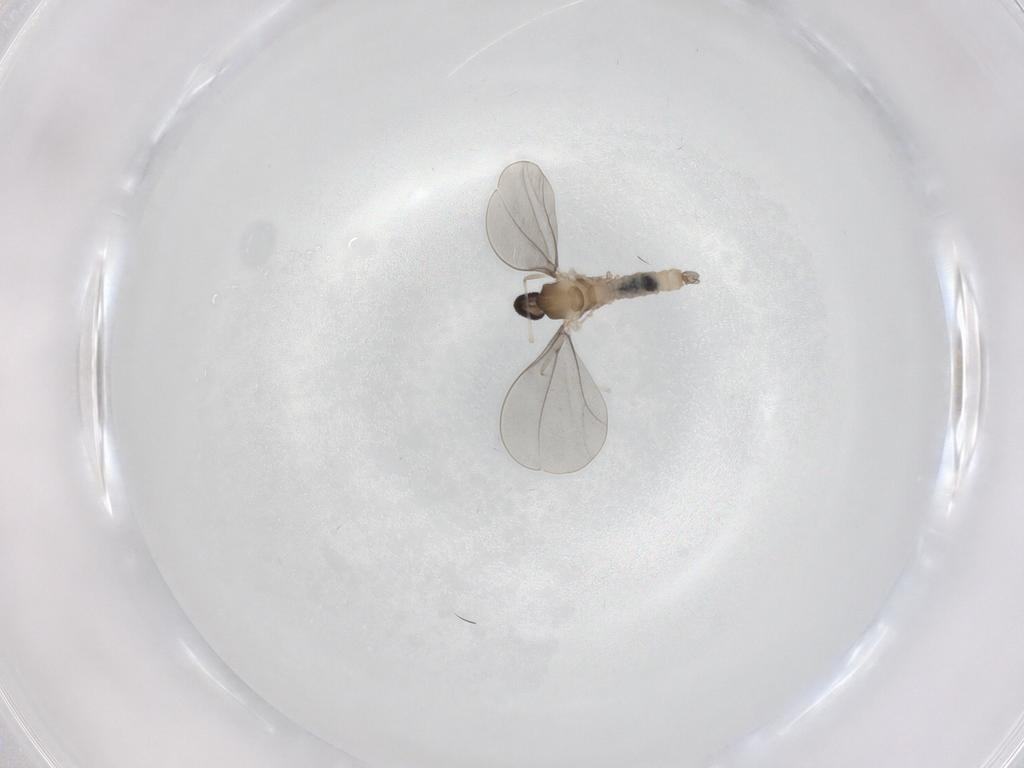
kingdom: Animalia
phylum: Arthropoda
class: Insecta
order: Diptera
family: Cecidomyiidae
